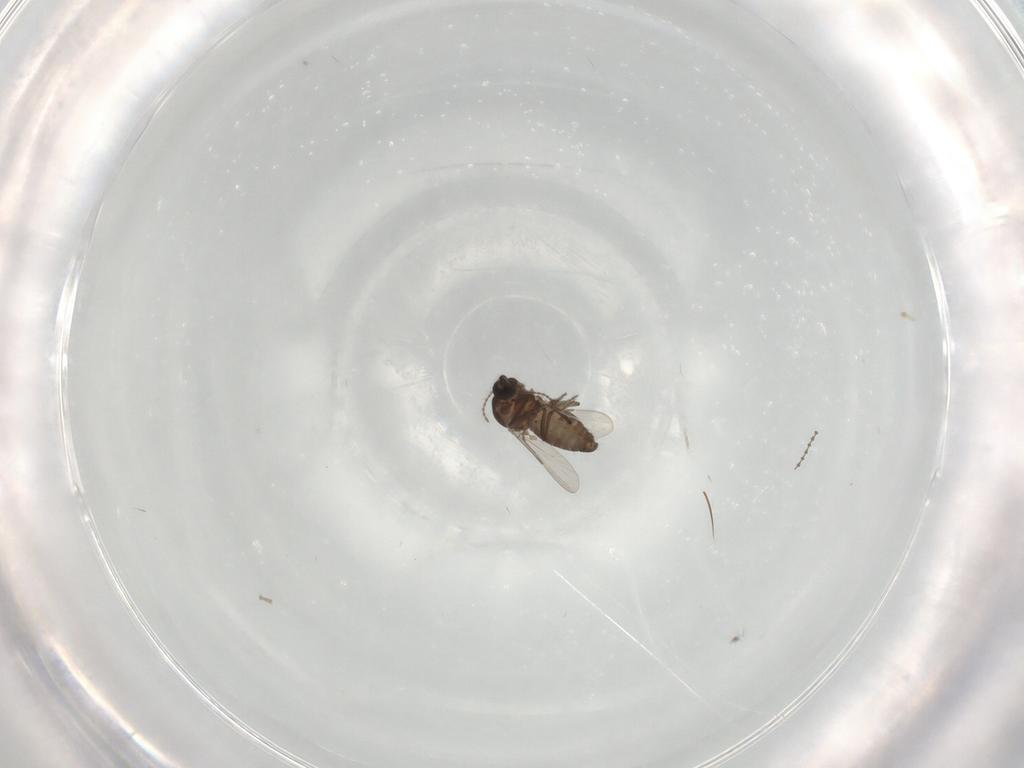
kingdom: Animalia
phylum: Arthropoda
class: Insecta
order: Diptera
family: Ceratopogonidae
